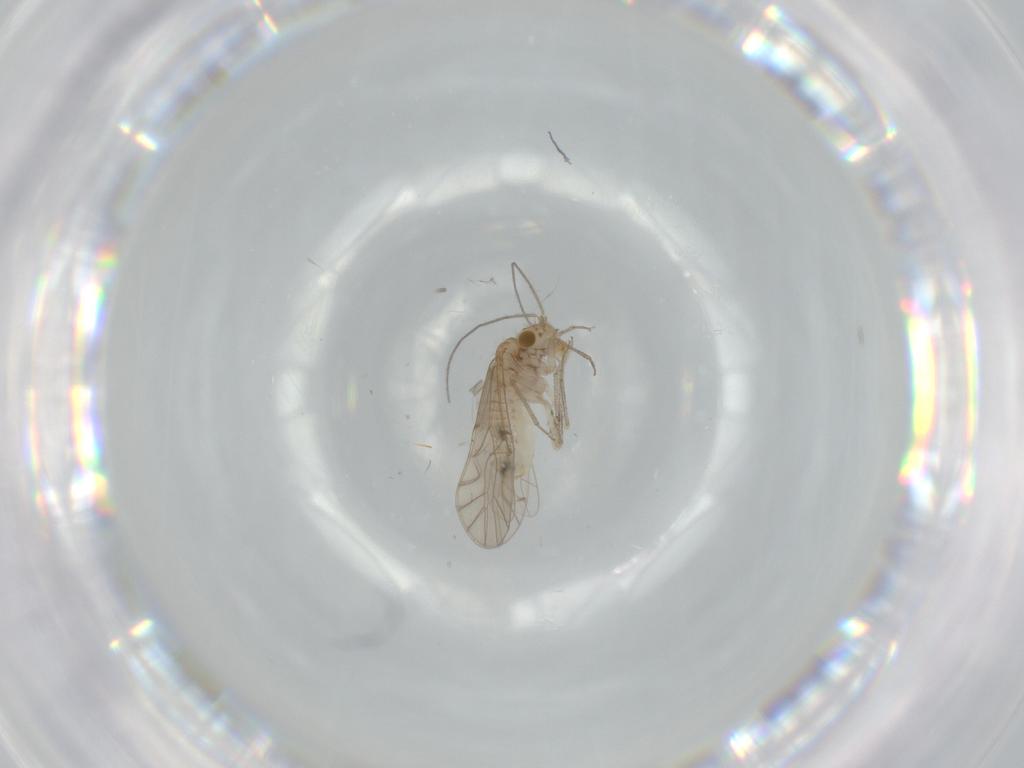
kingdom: Animalia
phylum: Arthropoda
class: Insecta
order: Psocodea
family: Lachesillidae
